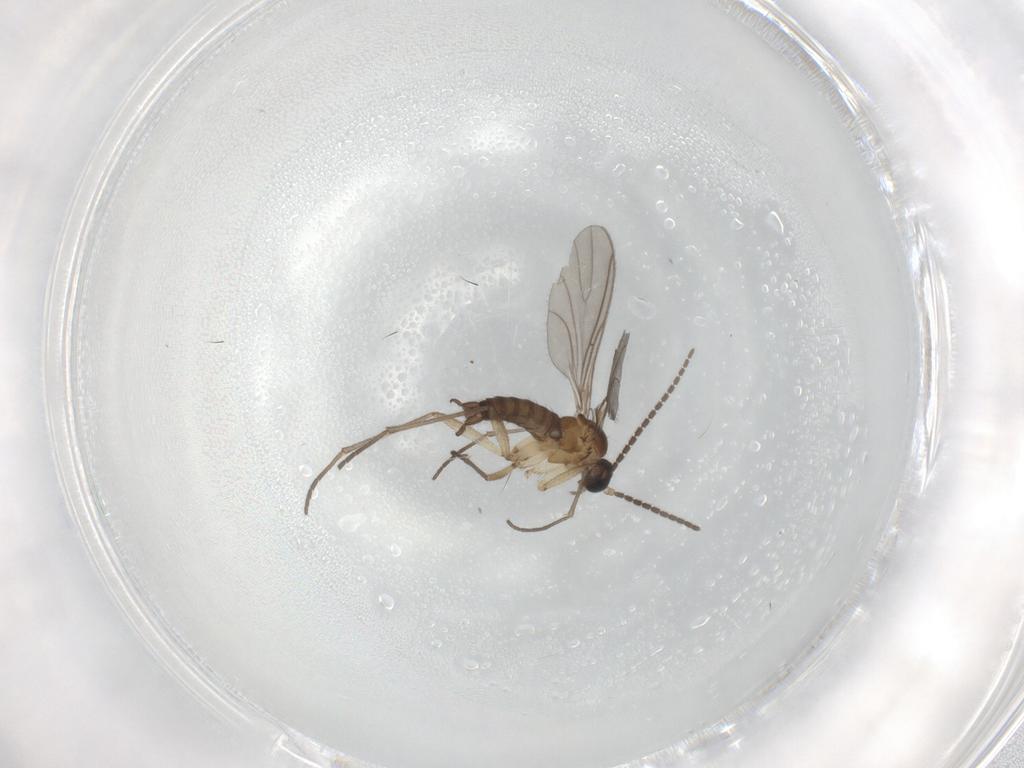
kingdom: Animalia
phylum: Arthropoda
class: Insecta
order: Diptera
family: Sciaridae
